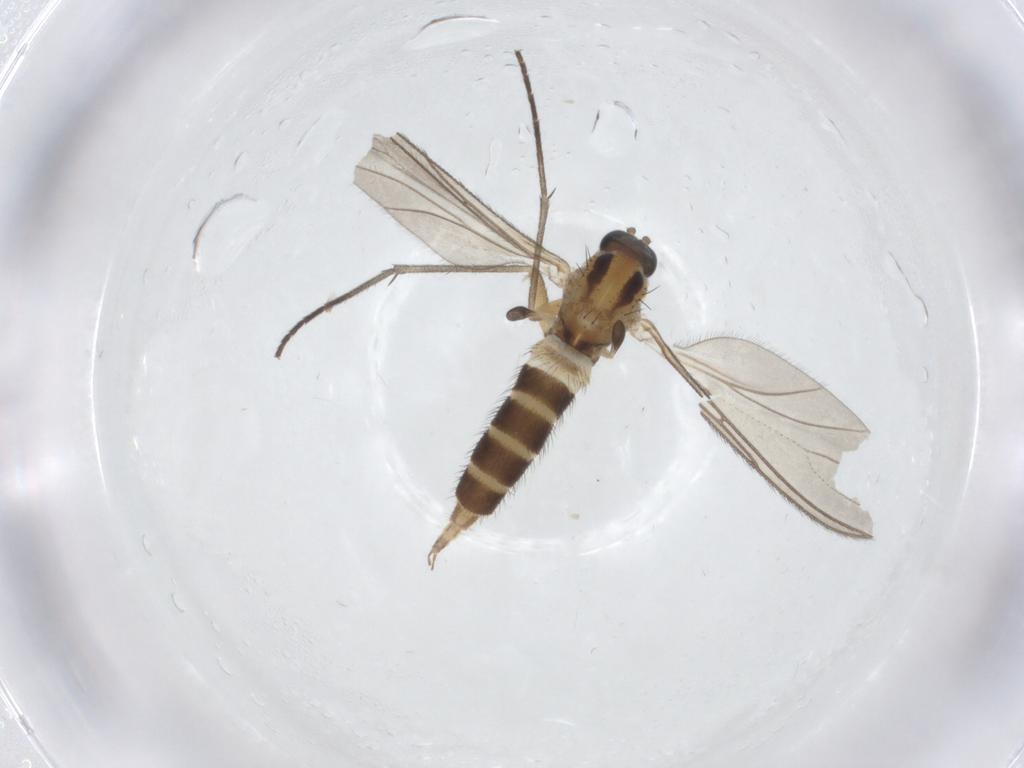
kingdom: Animalia
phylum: Arthropoda
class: Insecta
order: Diptera
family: Sciaridae
